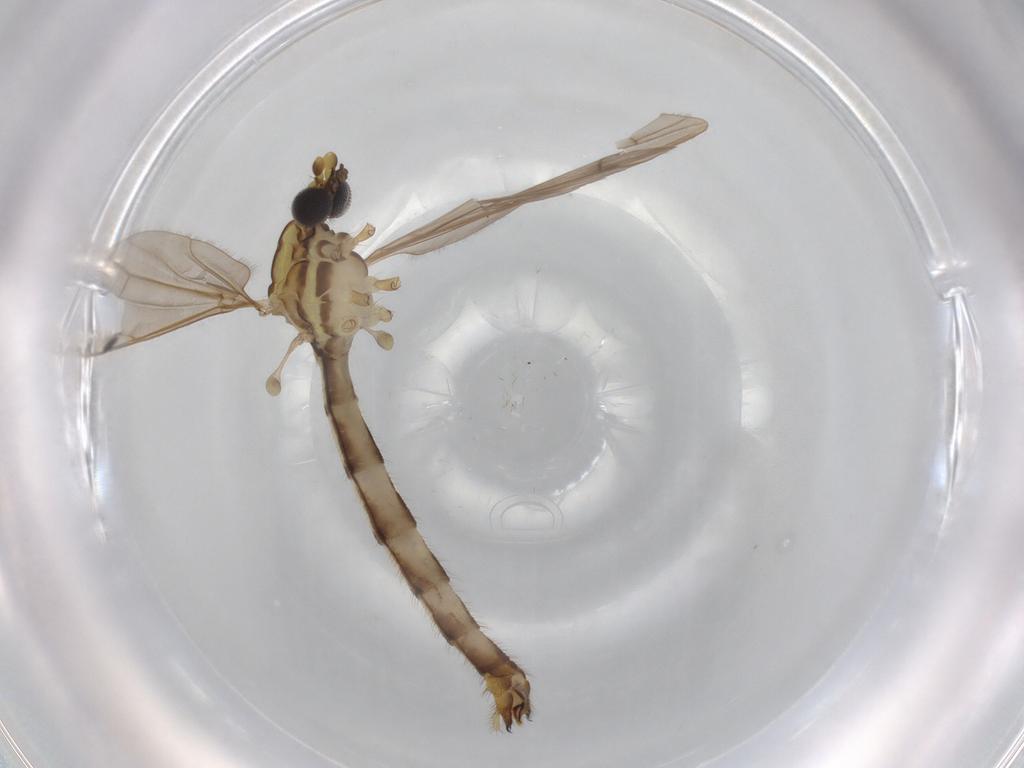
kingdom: Animalia
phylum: Arthropoda
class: Insecta
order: Diptera
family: Dolichopodidae
